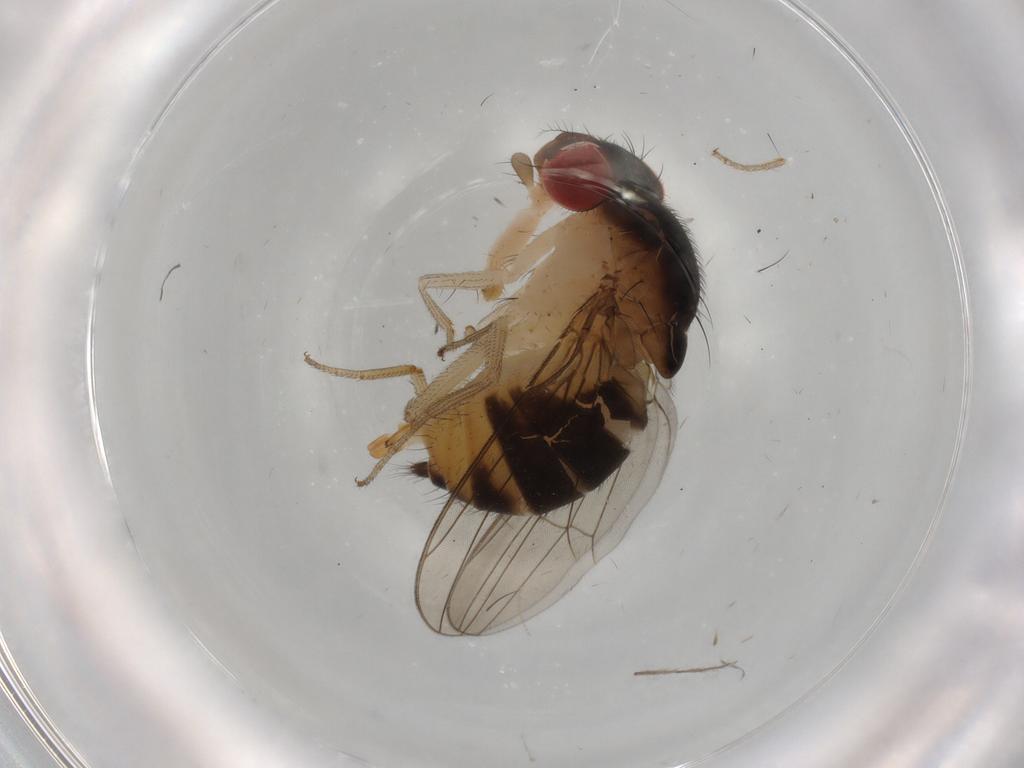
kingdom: Animalia
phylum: Arthropoda
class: Insecta
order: Diptera
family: Drosophilidae
